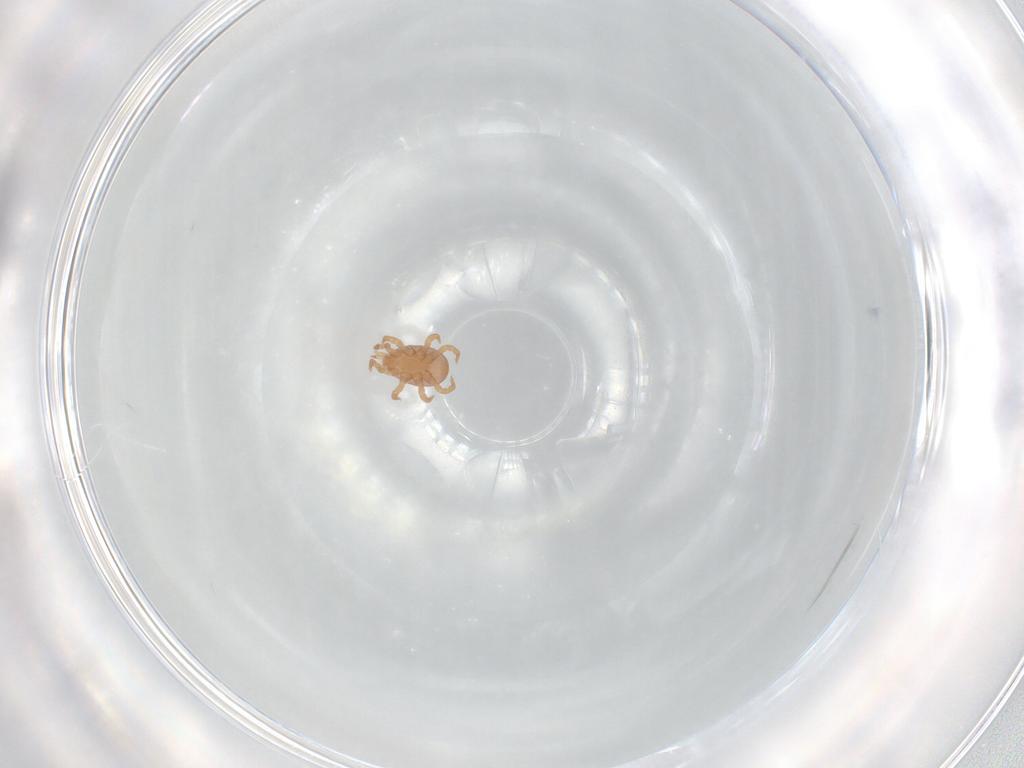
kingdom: Animalia
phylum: Arthropoda
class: Arachnida
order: Mesostigmata
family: Eviphididae
